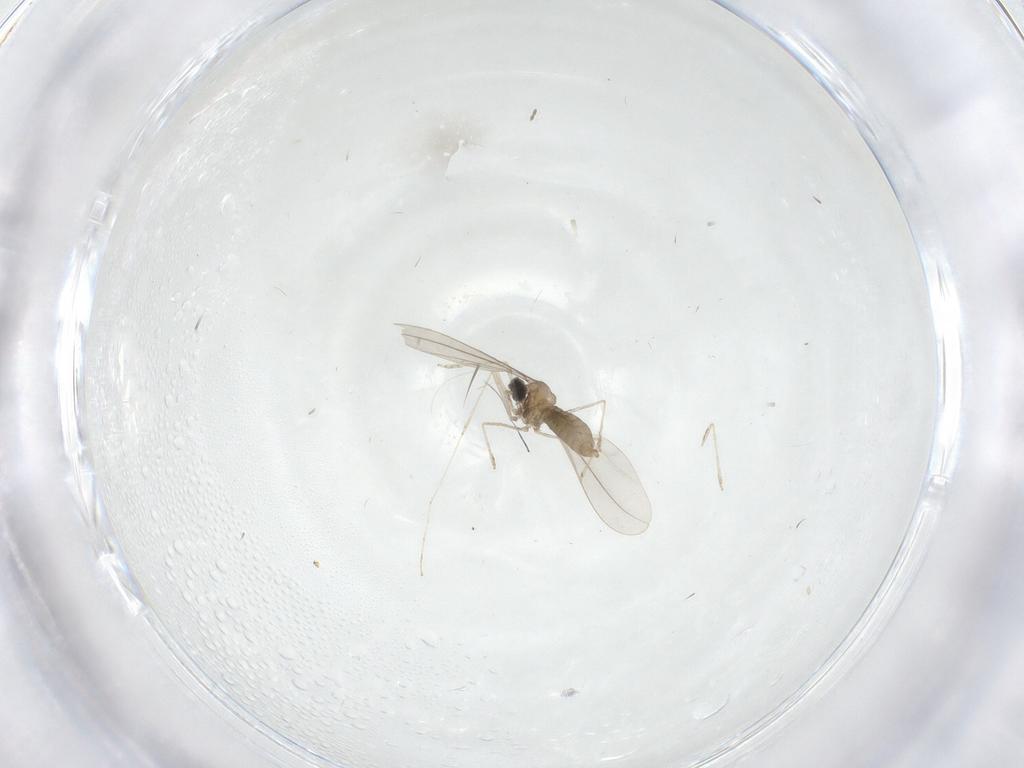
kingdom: Animalia
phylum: Arthropoda
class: Insecta
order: Diptera
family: Cecidomyiidae
